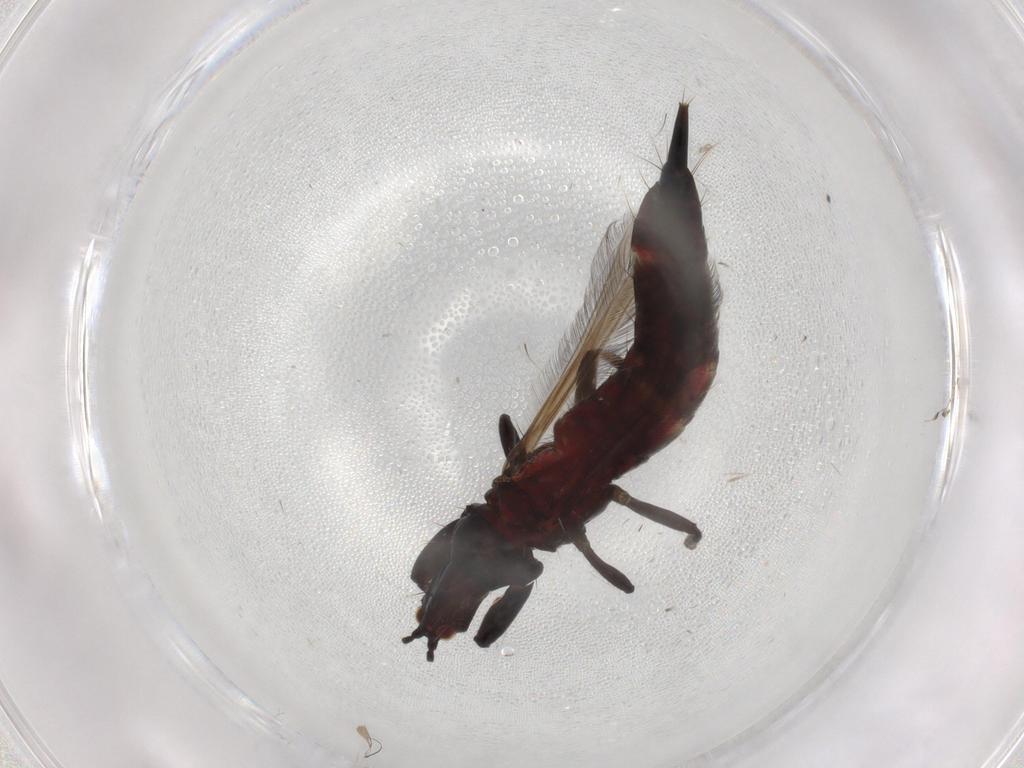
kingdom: Animalia
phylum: Arthropoda
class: Insecta
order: Thysanoptera
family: Phlaeothripidae
